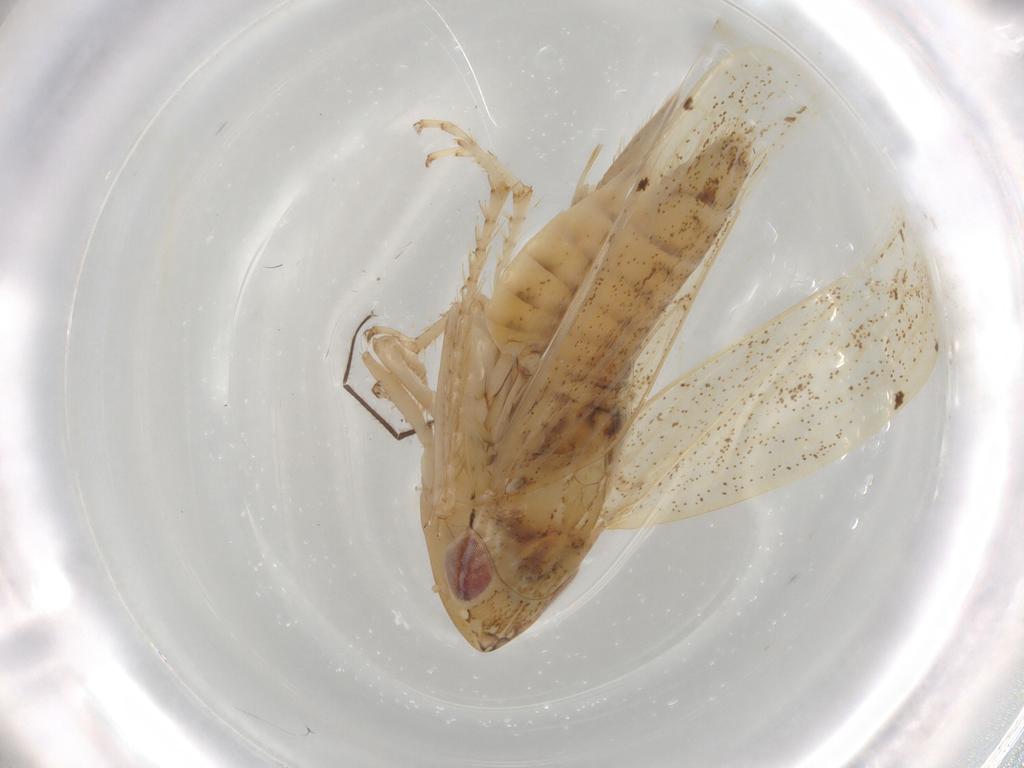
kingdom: Animalia
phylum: Arthropoda
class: Insecta
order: Hemiptera
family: Cicadellidae
